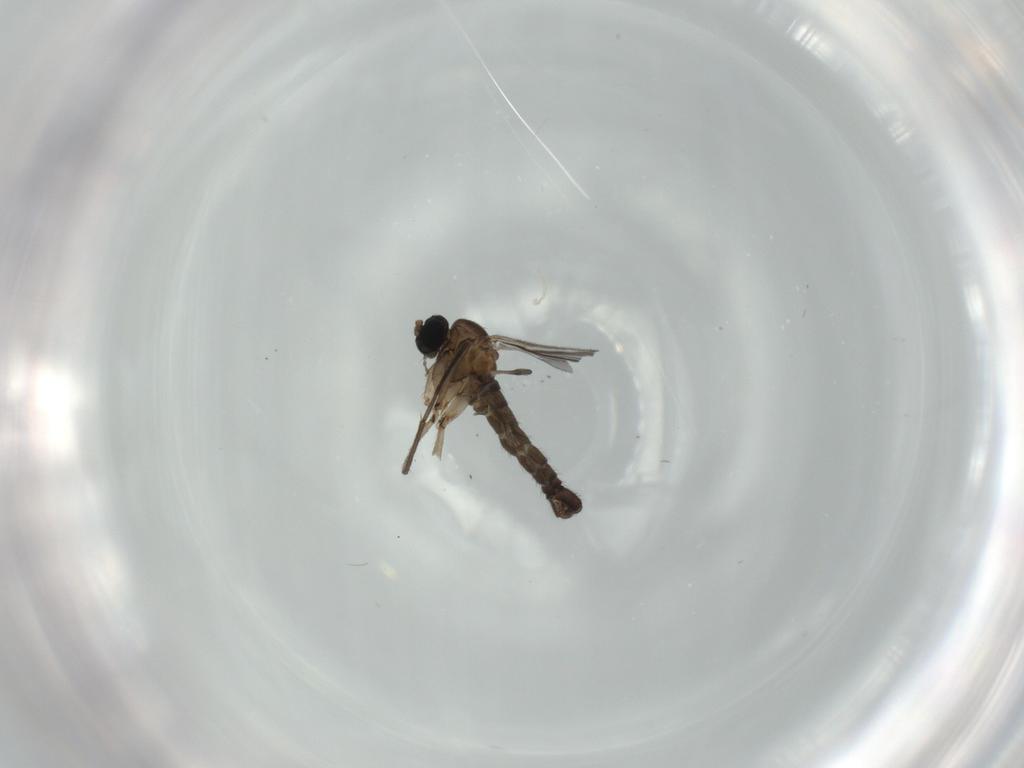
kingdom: Animalia
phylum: Arthropoda
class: Insecta
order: Diptera
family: Sciaridae
